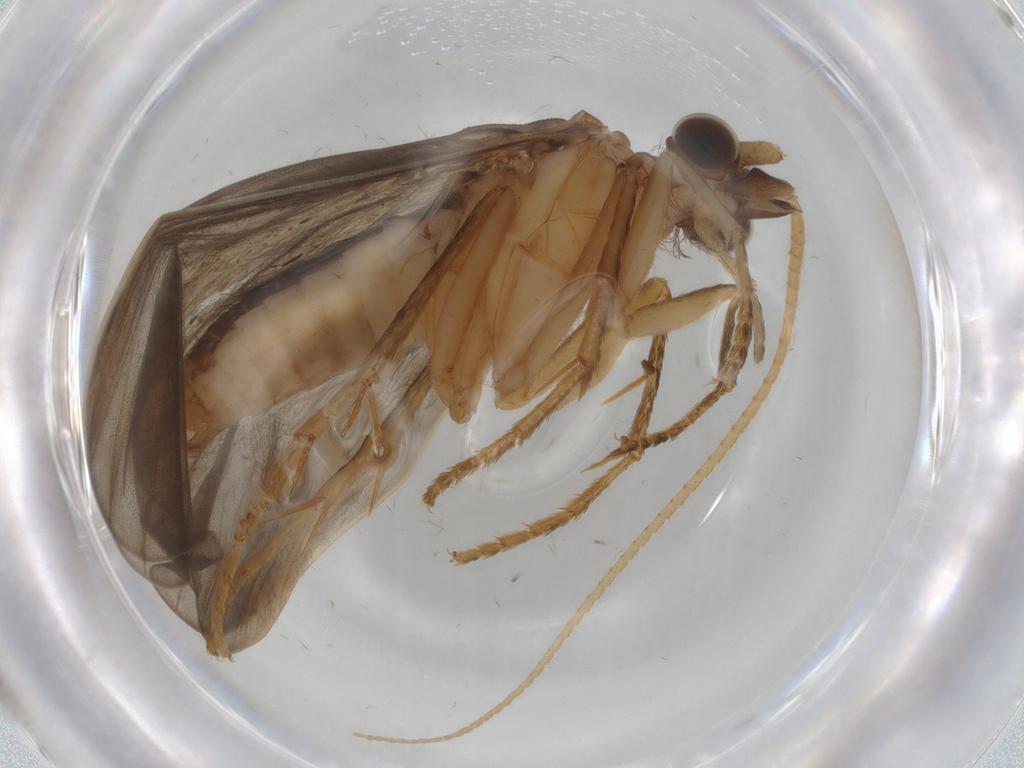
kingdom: Animalia
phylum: Arthropoda
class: Insecta
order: Trichoptera
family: Lepidostomatidae
